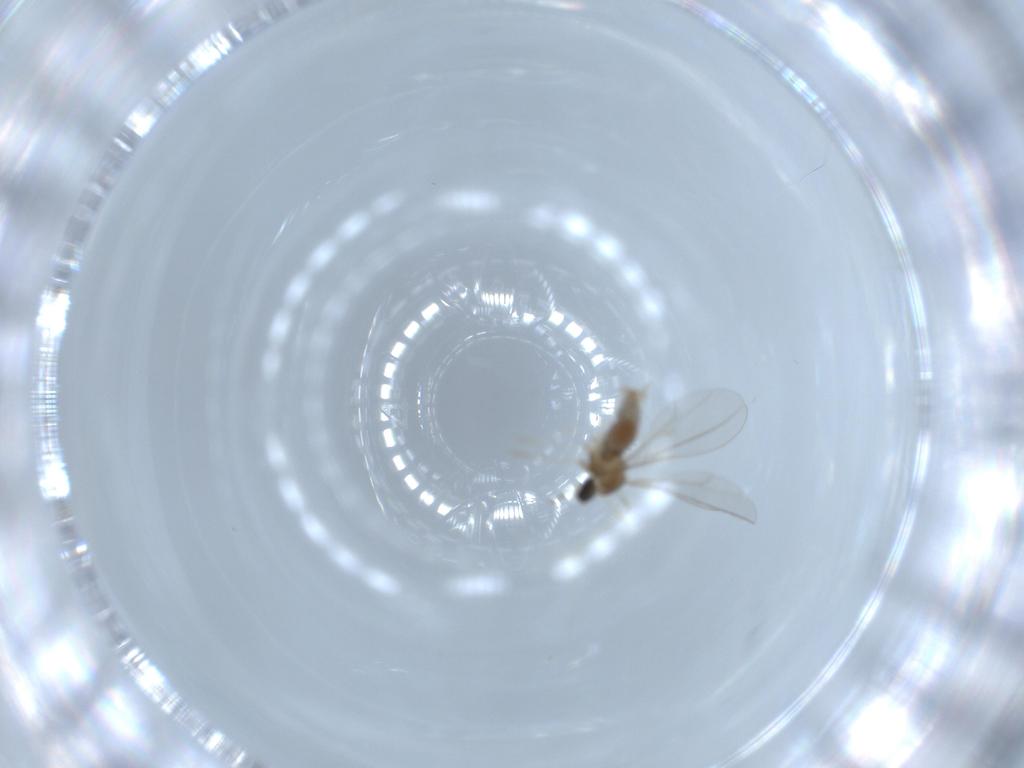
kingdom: Animalia
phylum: Arthropoda
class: Insecta
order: Diptera
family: Cecidomyiidae
